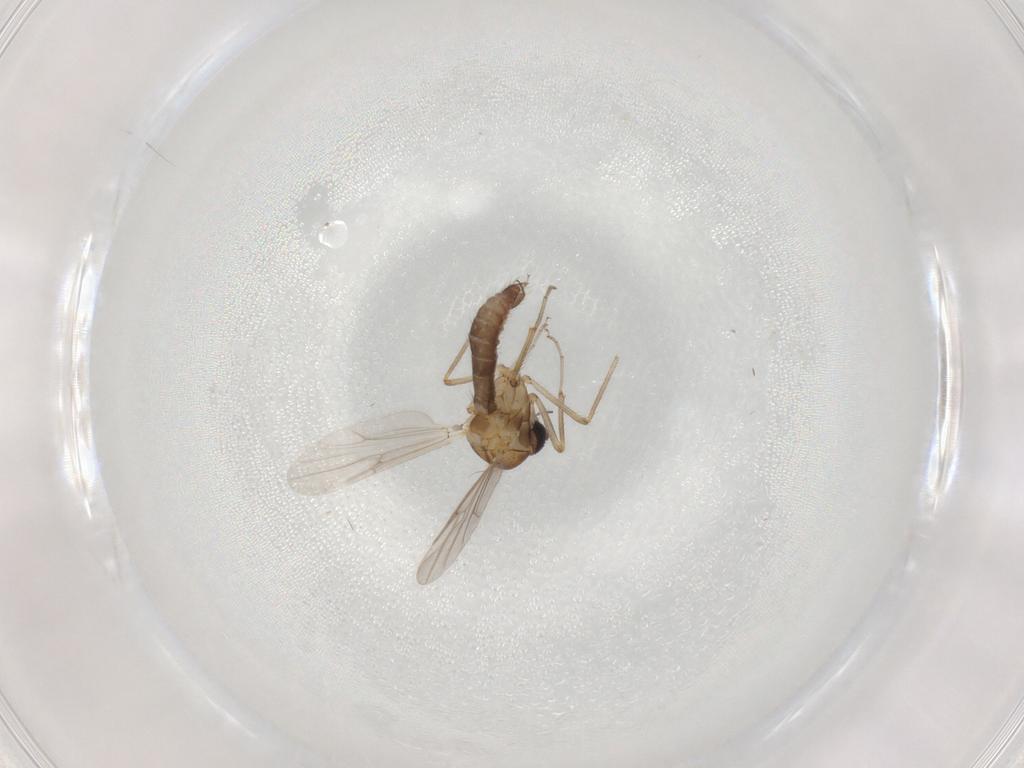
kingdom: Animalia
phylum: Arthropoda
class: Insecta
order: Diptera
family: Ceratopogonidae
